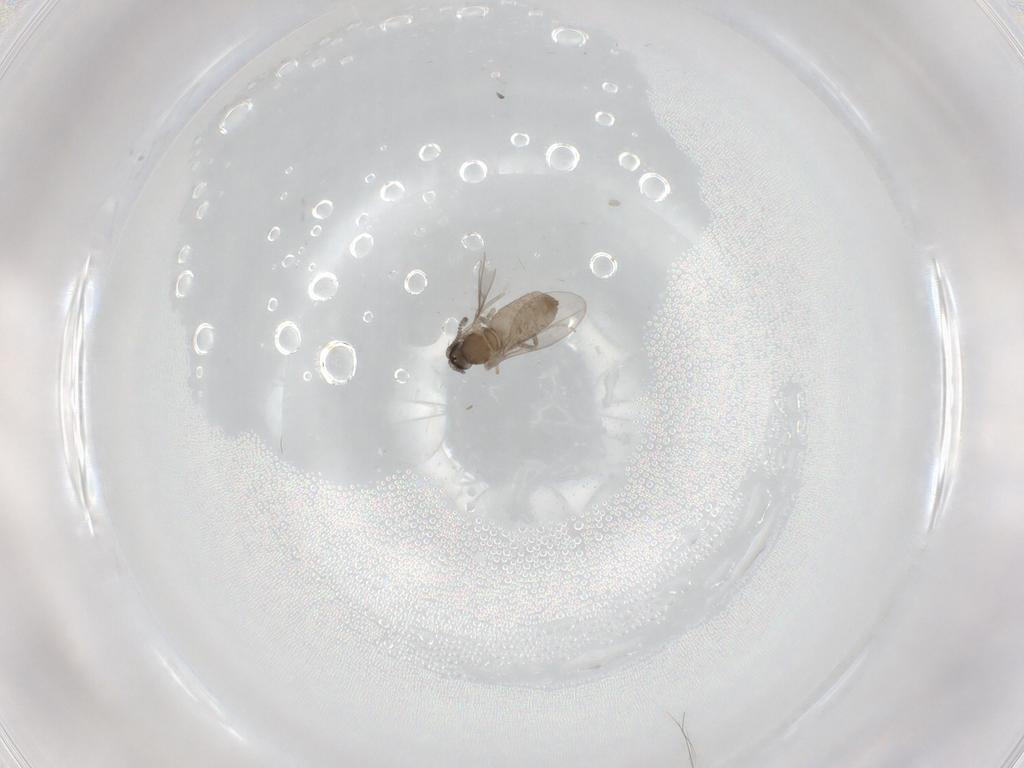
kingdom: Animalia
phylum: Arthropoda
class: Insecta
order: Diptera
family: Cecidomyiidae
